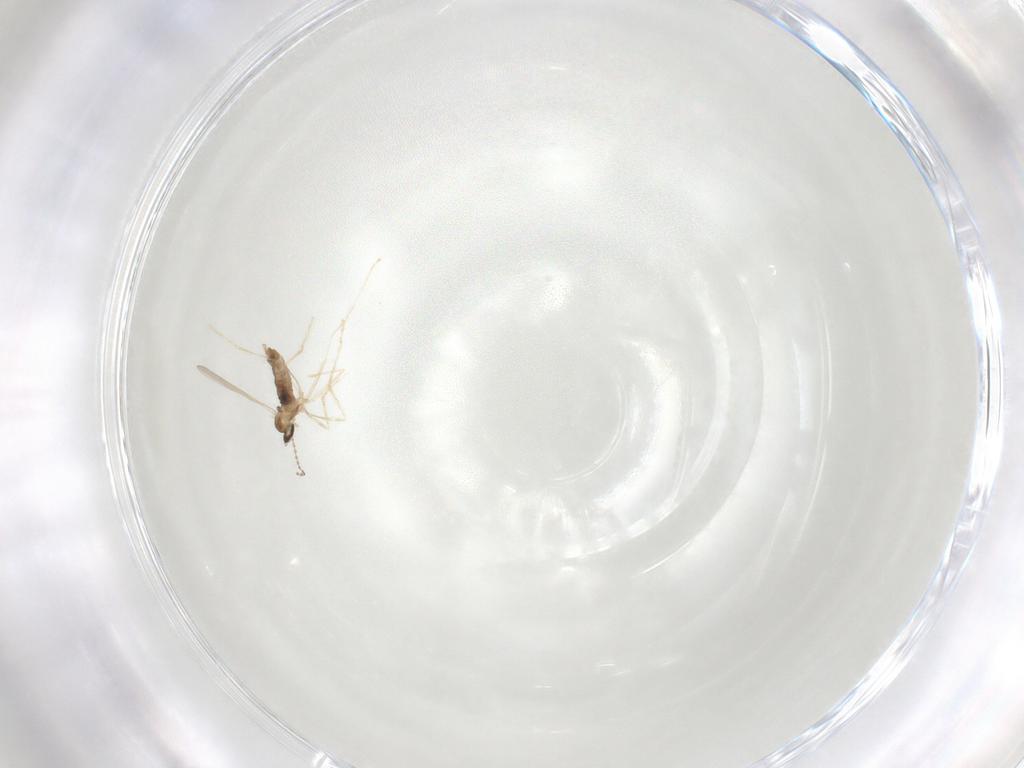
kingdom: Animalia
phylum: Arthropoda
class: Insecta
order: Diptera
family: Cecidomyiidae
